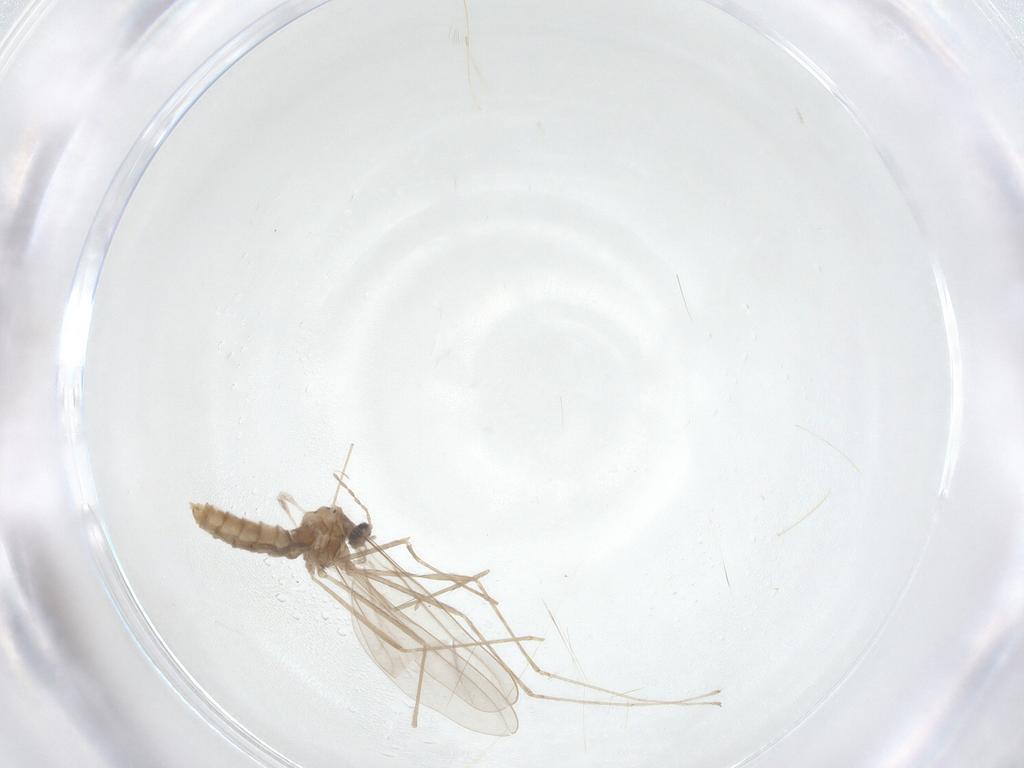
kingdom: Animalia
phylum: Arthropoda
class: Insecta
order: Diptera
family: Cecidomyiidae
